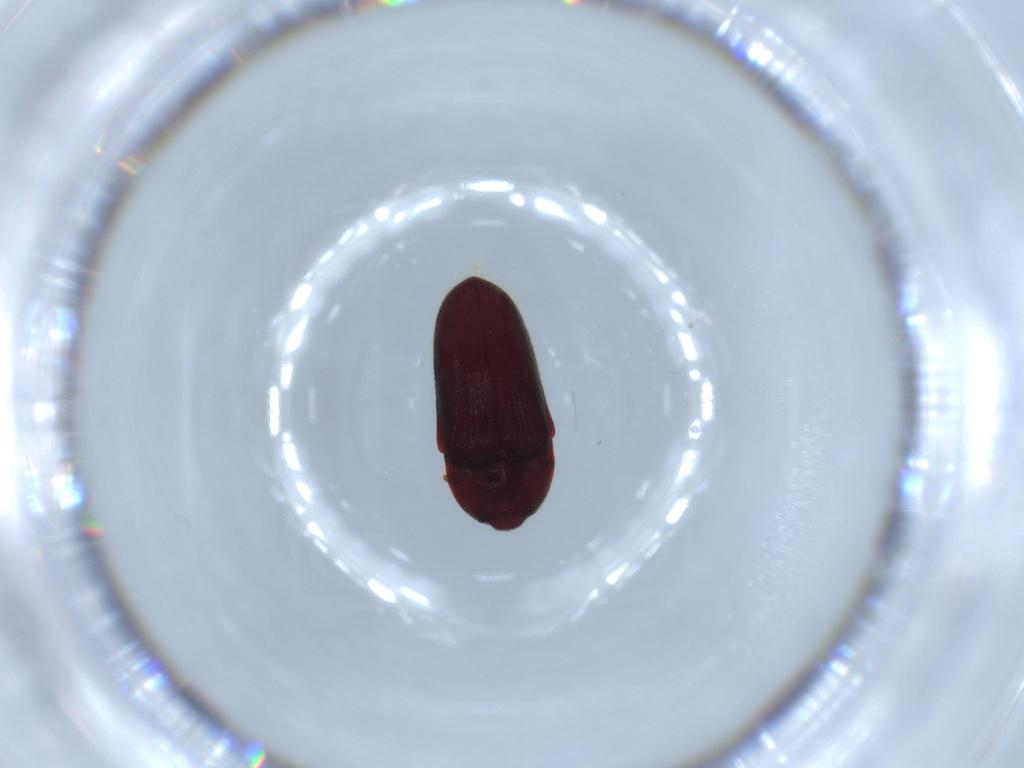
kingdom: Animalia
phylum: Arthropoda
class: Insecta
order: Coleoptera
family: Throscidae
